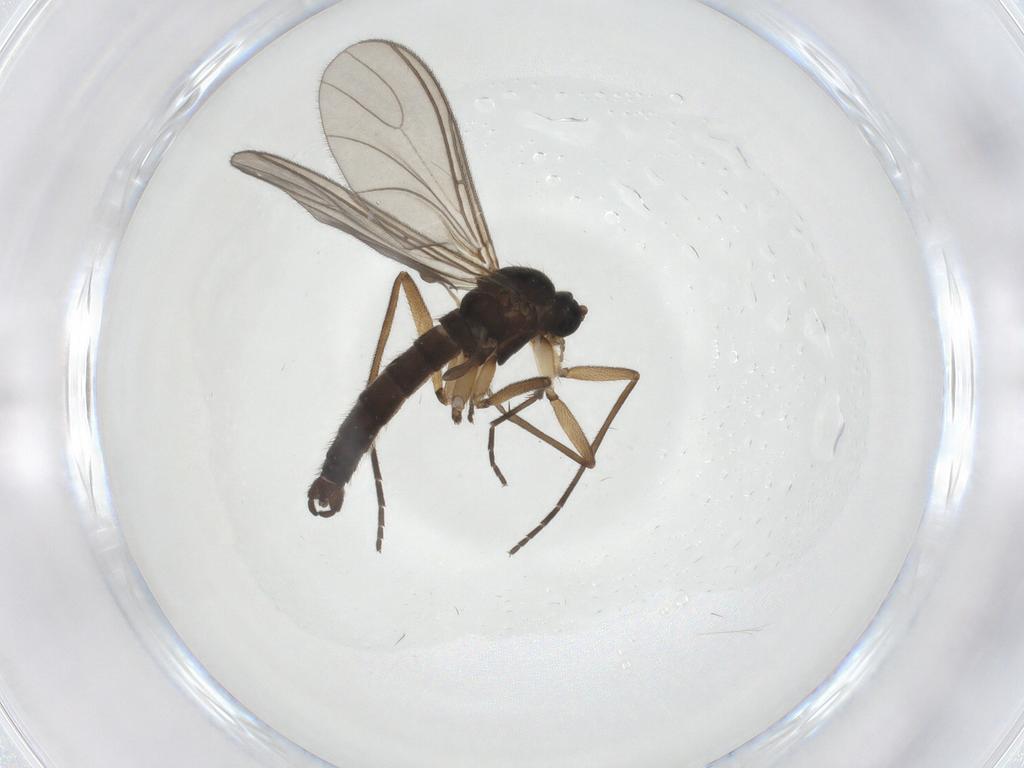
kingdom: Animalia
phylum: Arthropoda
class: Insecta
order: Diptera
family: Sciaridae
